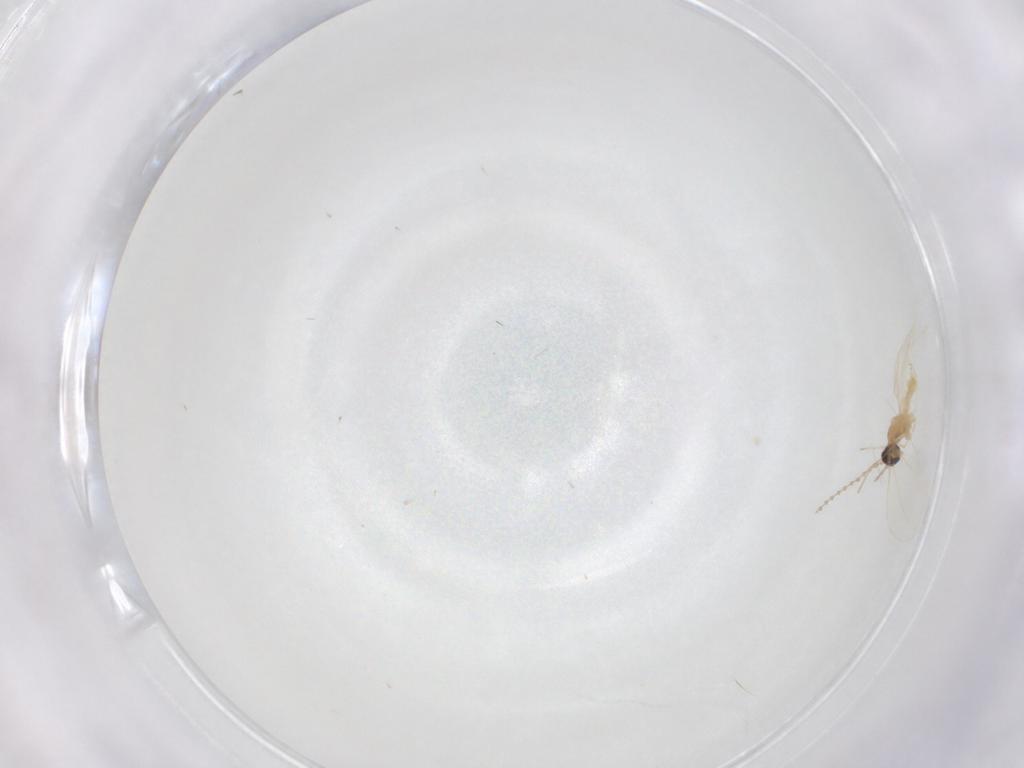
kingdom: Animalia
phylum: Arthropoda
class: Insecta
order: Diptera
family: Cecidomyiidae
